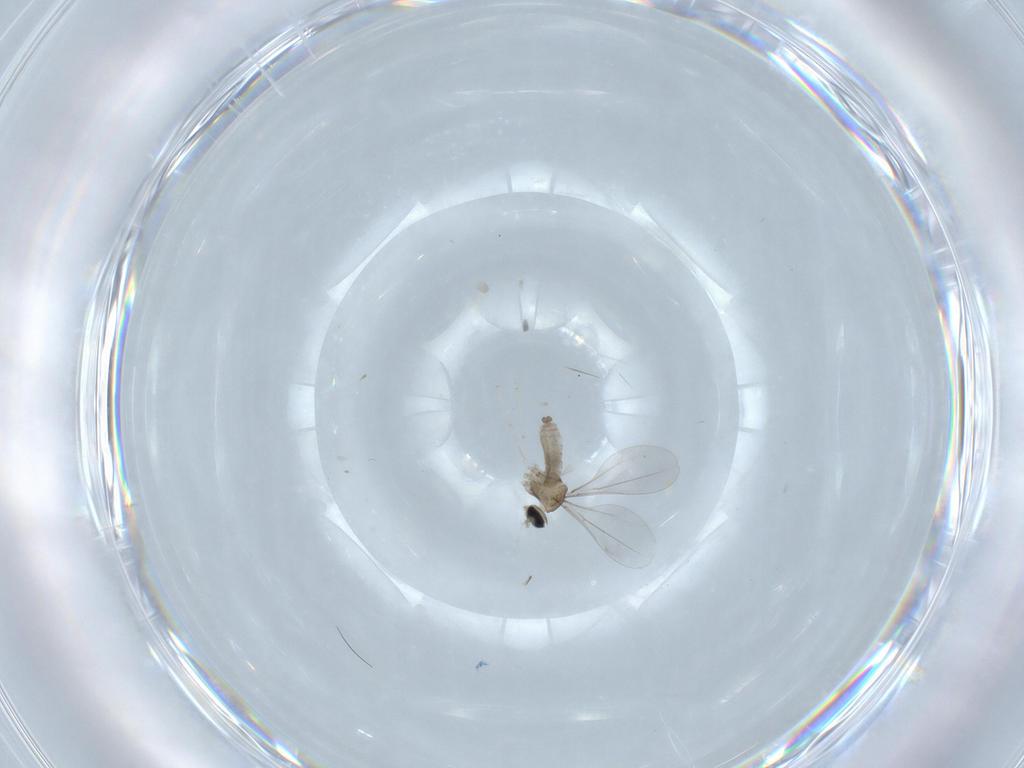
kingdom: Animalia
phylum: Arthropoda
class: Insecta
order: Diptera
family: Cecidomyiidae
